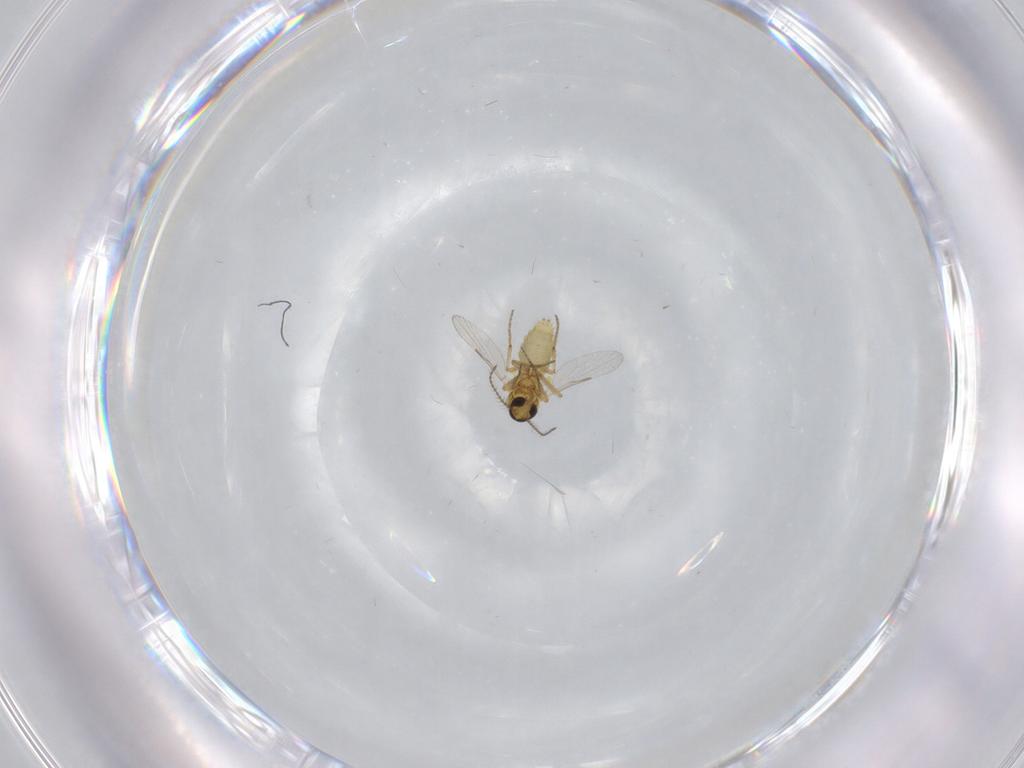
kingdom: Animalia
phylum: Arthropoda
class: Insecta
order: Diptera
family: Ceratopogonidae
